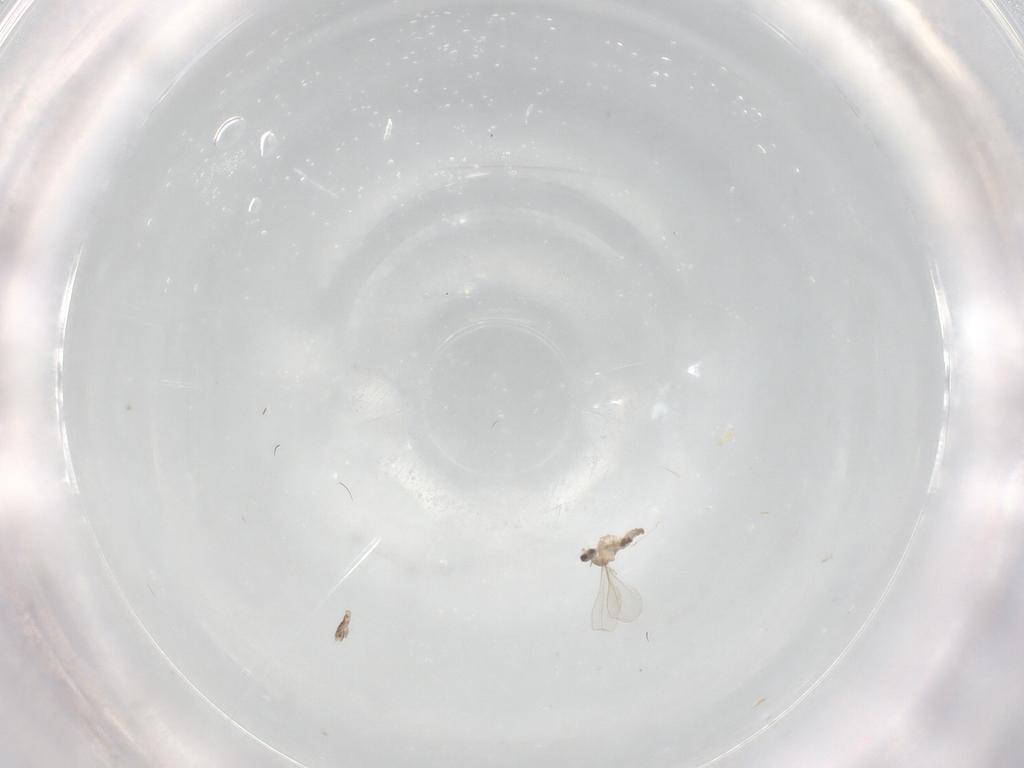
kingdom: Animalia
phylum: Arthropoda
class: Insecta
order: Diptera
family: Cecidomyiidae
